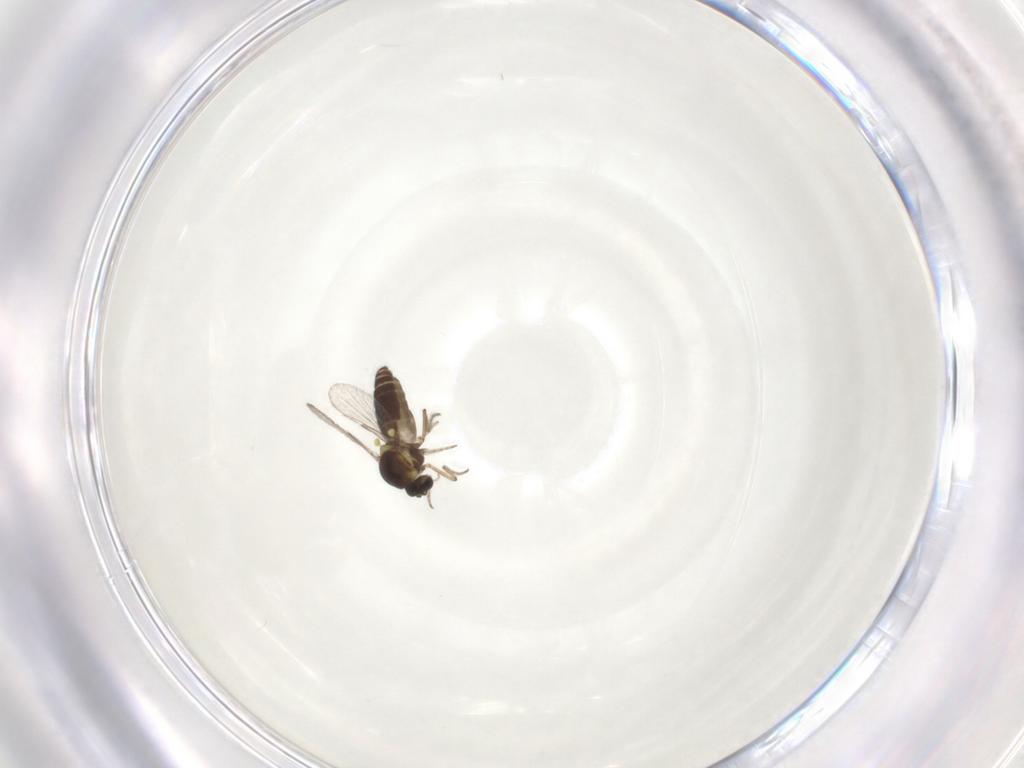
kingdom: Animalia
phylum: Arthropoda
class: Insecta
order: Diptera
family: Ceratopogonidae
